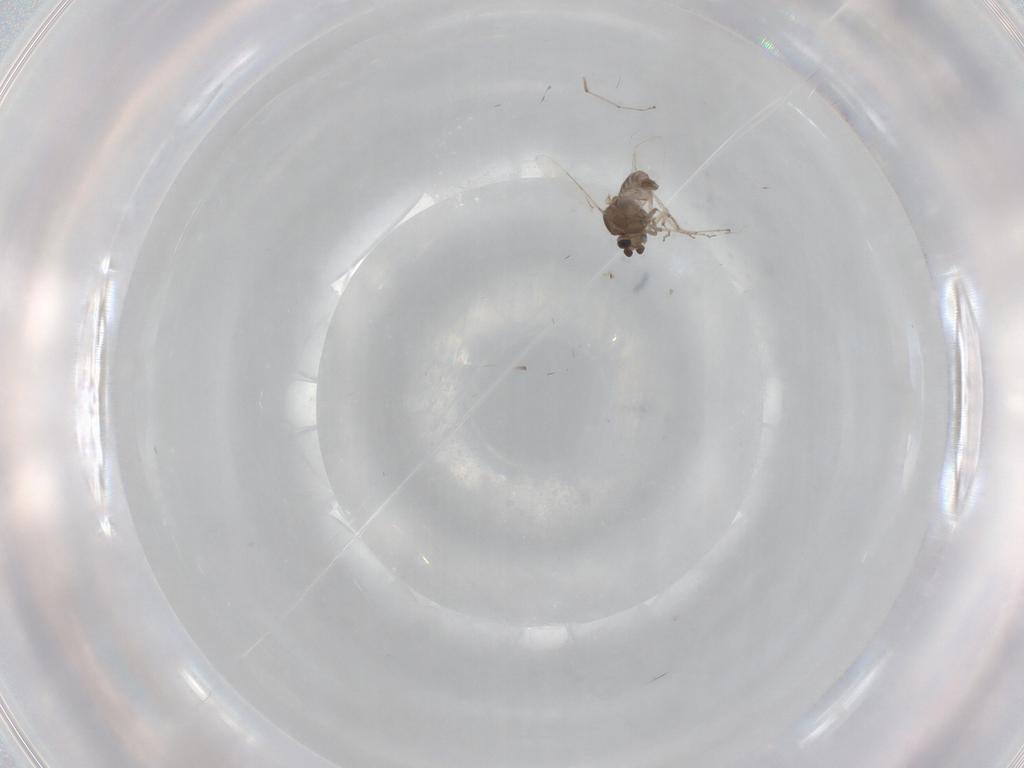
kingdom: Animalia
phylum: Arthropoda
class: Insecta
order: Diptera
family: Ceratopogonidae
